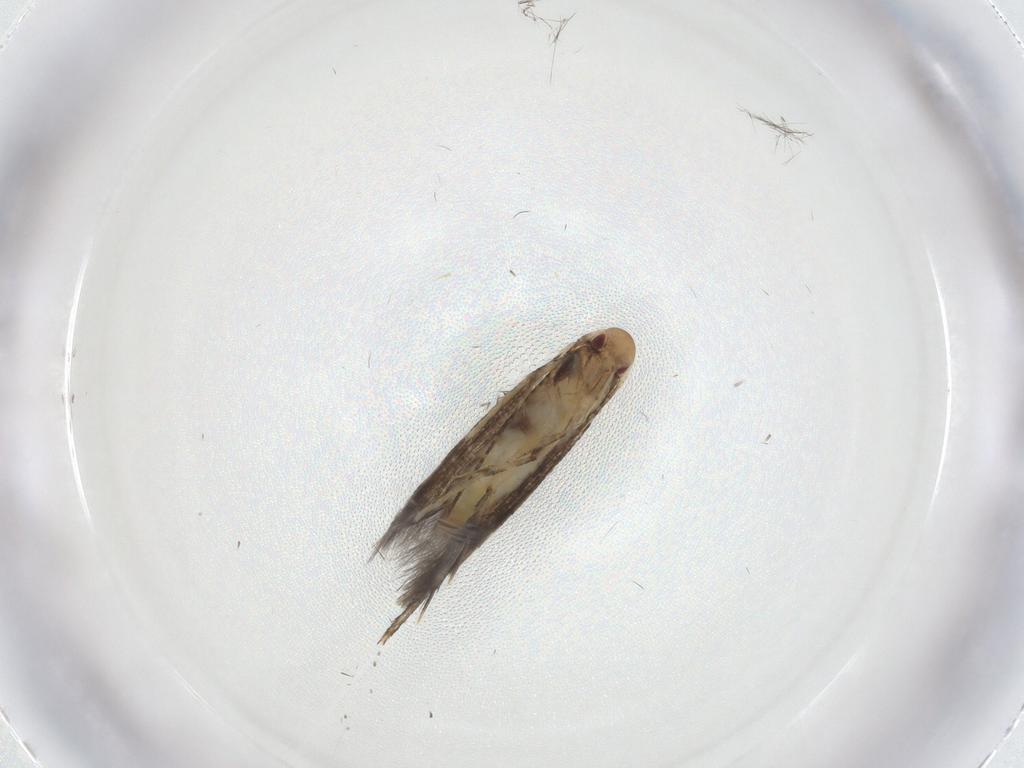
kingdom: Animalia
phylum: Arthropoda
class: Insecta
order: Lepidoptera
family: Momphidae
